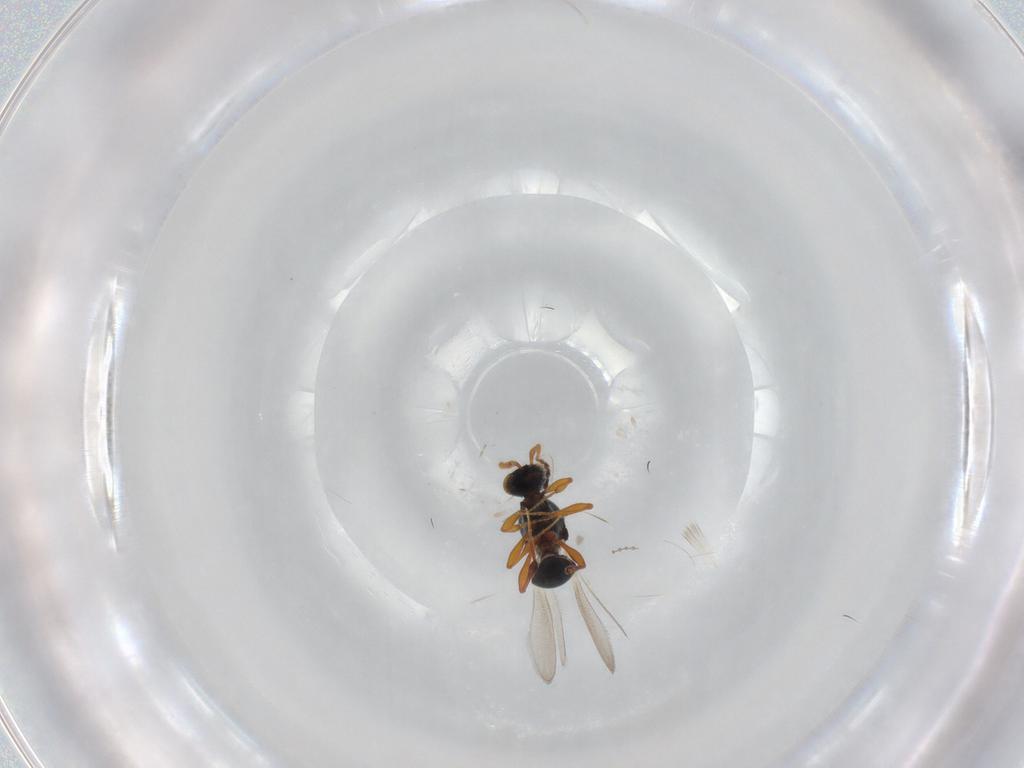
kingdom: Animalia
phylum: Arthropoda
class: Insecta
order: Hymenoptera
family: Platygastridae
